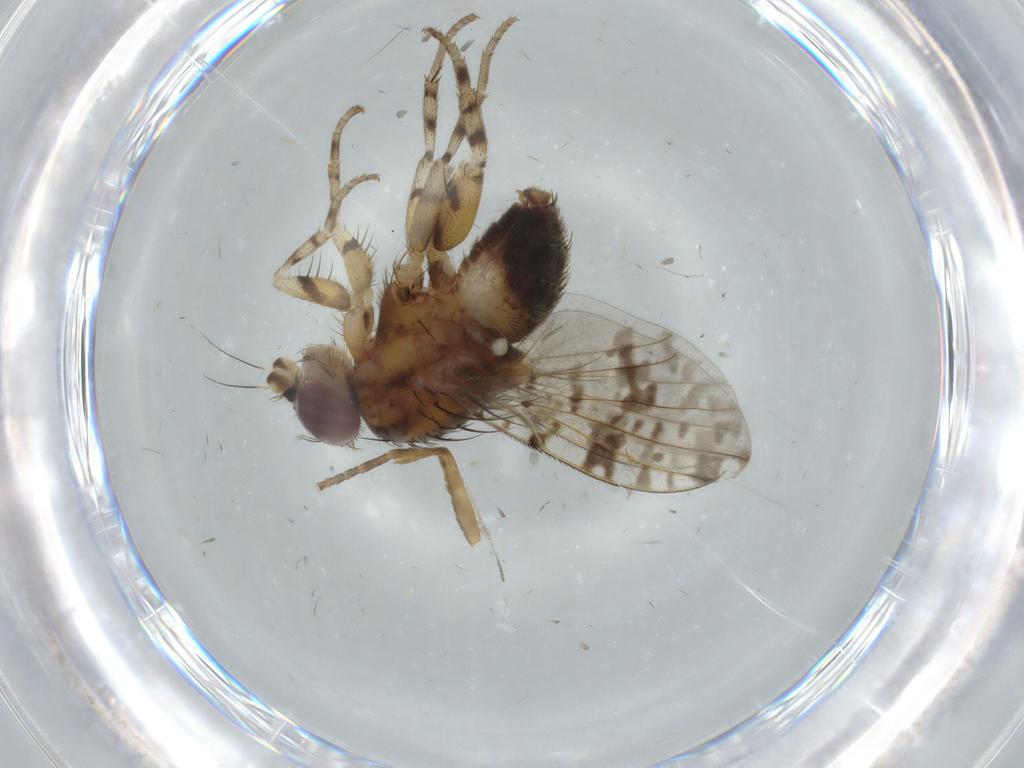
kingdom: Animalia
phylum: Arthropoda
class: Insecta
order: Diptera
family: Odiniidae
